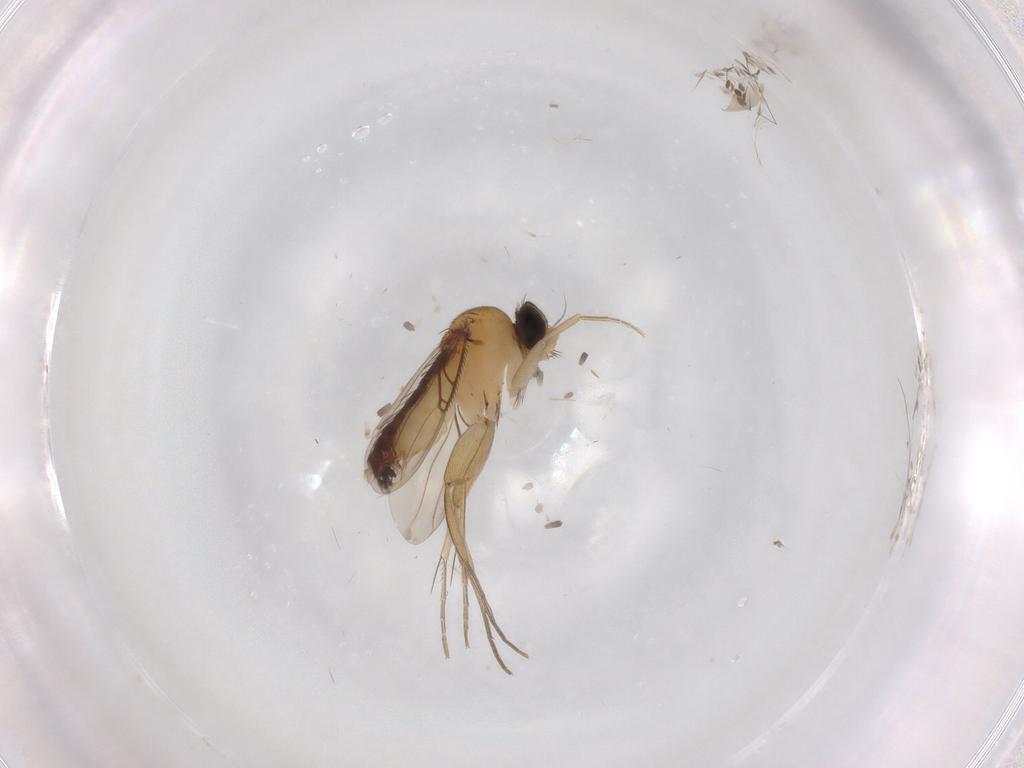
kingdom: Animalia
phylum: Arthropoda
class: Insecta
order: Diptera
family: Phoridae
